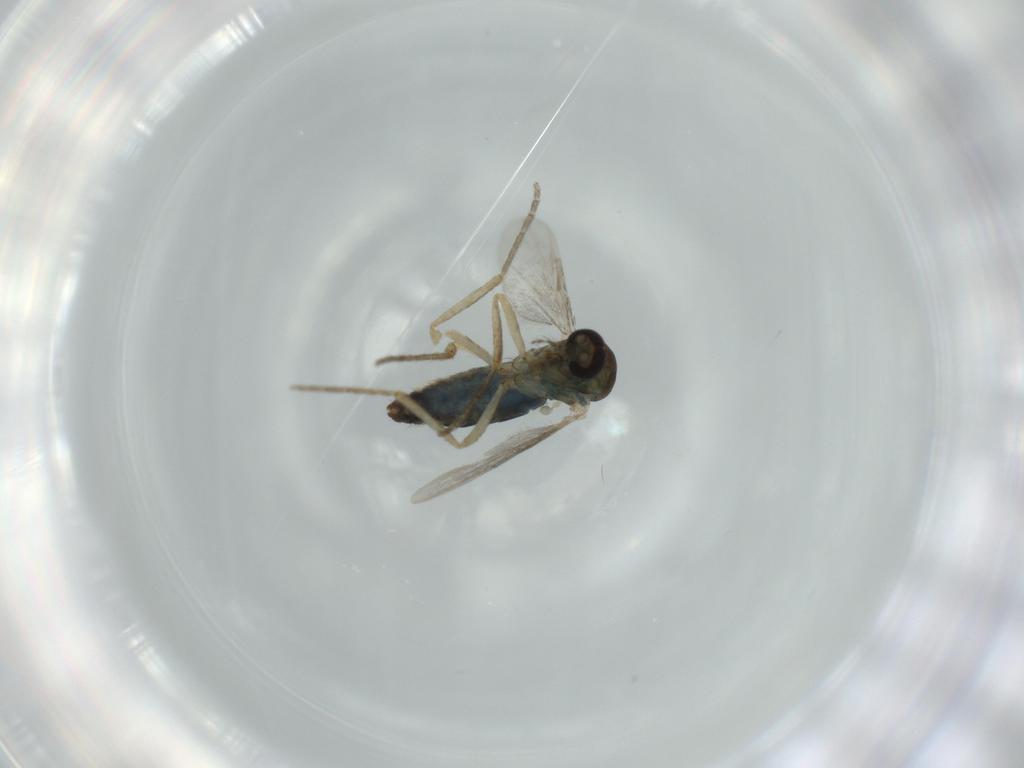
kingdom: Animalia
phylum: Arthropoda
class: Insecta
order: Diptera
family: Ceratopogonidae
